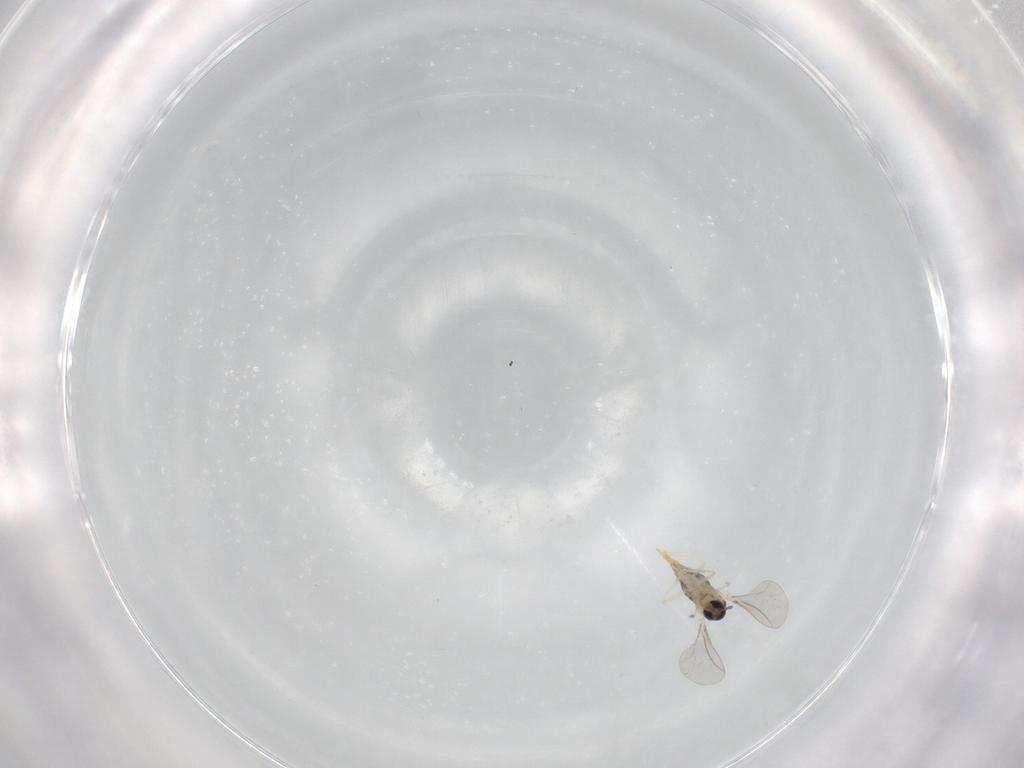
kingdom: Animalia
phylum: Arthropoda
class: Insecta
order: Diptera
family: Cecidomyiidae
